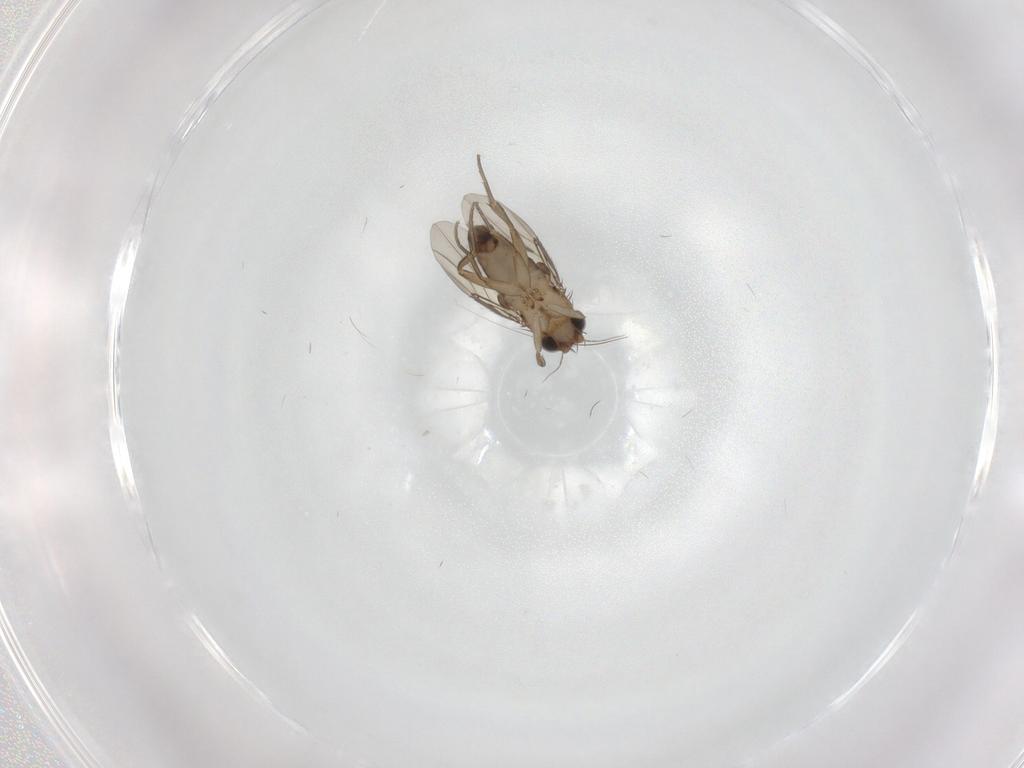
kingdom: Animalia
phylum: Arthropoda
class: Insecta
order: Diptera
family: Phoridae
